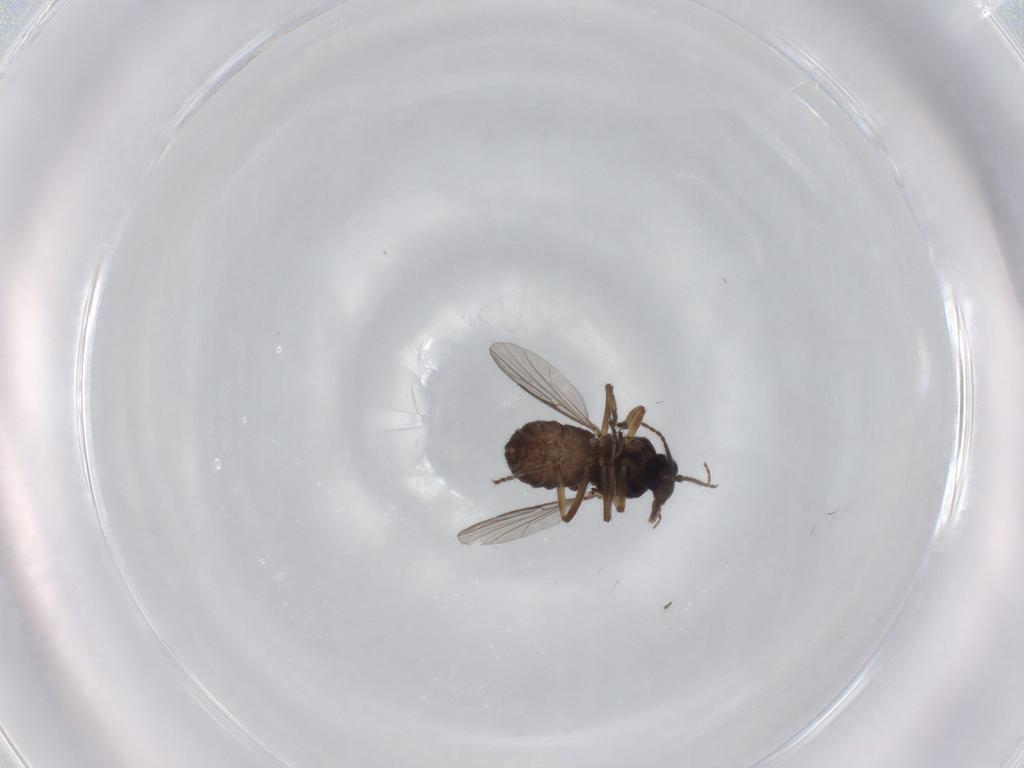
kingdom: Animalia
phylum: Arthropoda
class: Insecta
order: Diptera
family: Ceratopogonidae
